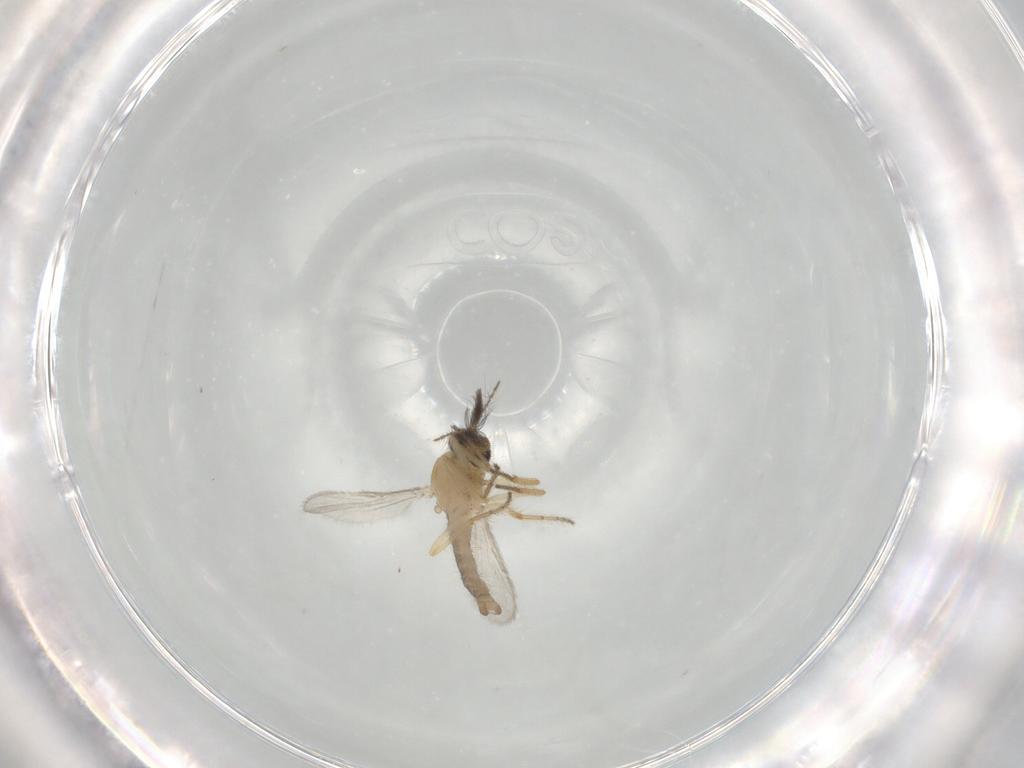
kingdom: Animalia
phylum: Arthropoda
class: Insecta
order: Diptera
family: Ceratopogonidae
